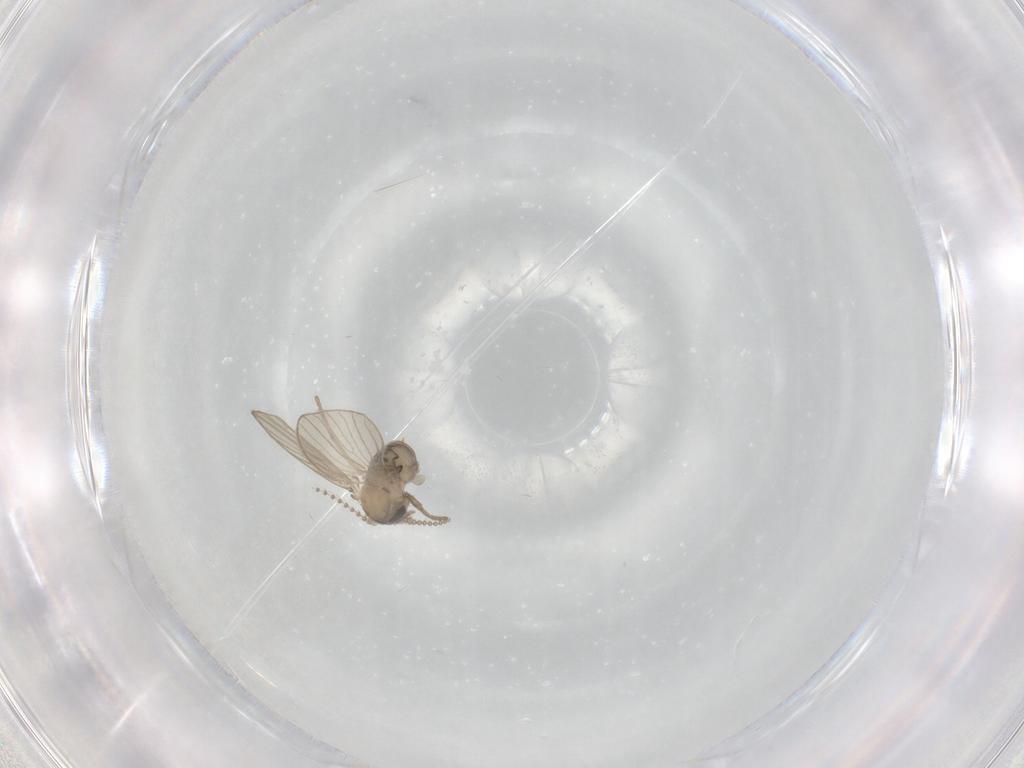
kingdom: Animalia
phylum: Arthropoda
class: Insecta
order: Diptera
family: Psychodidae
